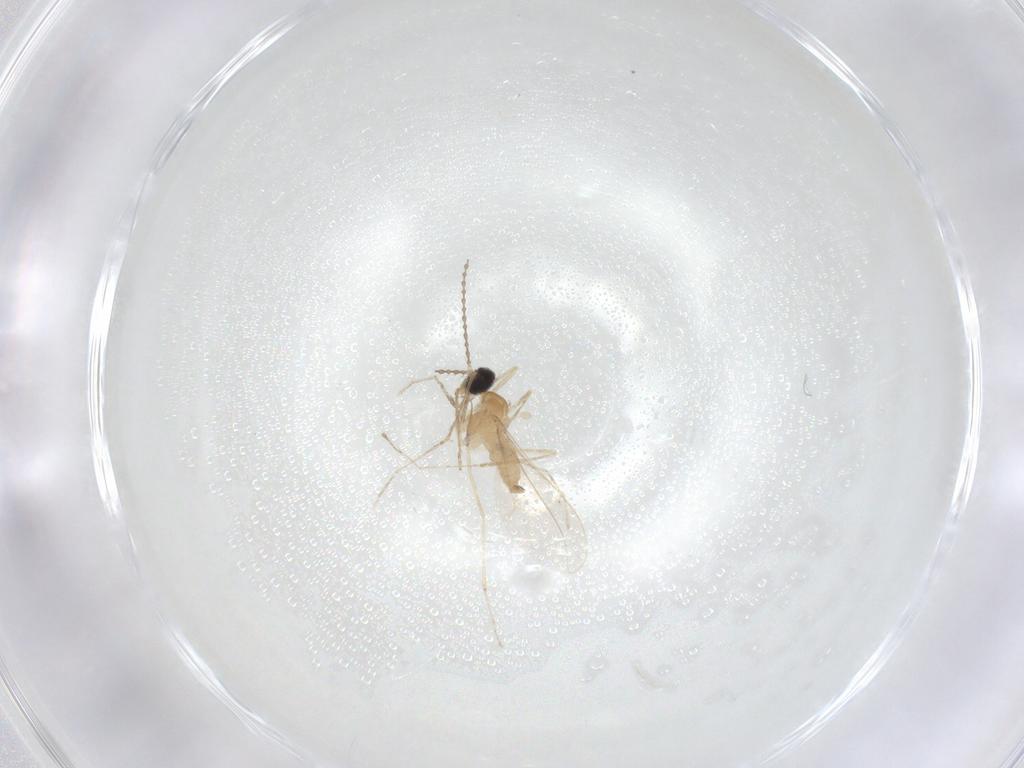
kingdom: Animalia
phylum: Arthropoda
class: Insecta
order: Diptera
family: Cecidomyiidae
